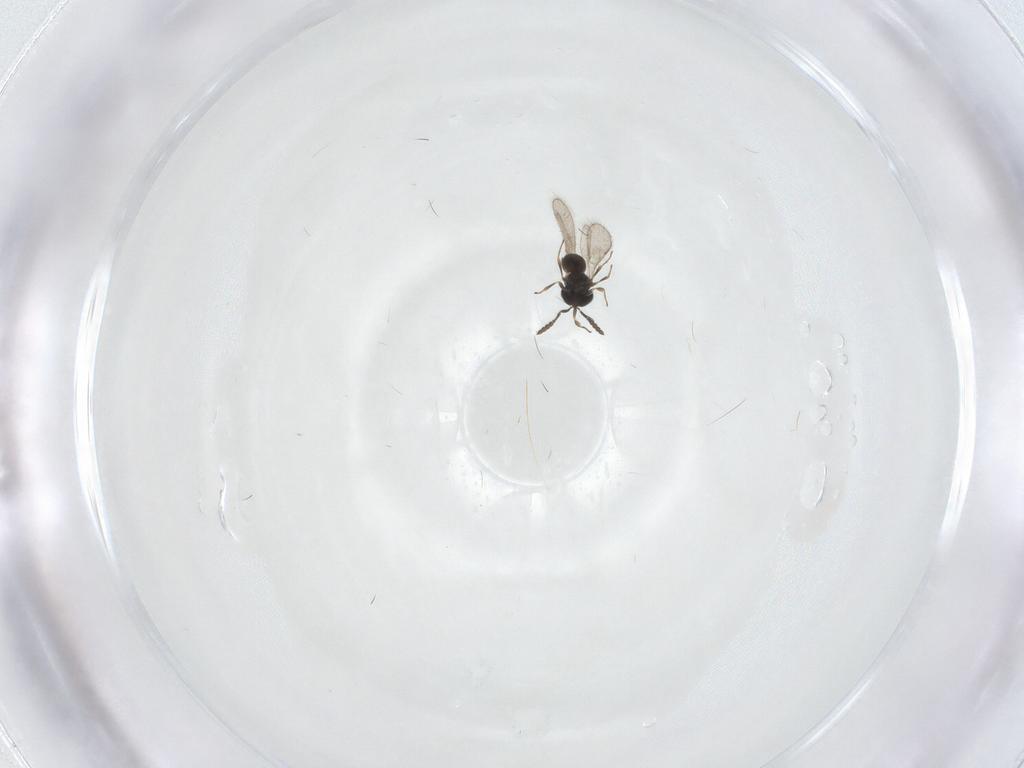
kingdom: Animalia
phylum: Arthropoda
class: Insecta
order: Hymenoptera
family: Scelionidae
